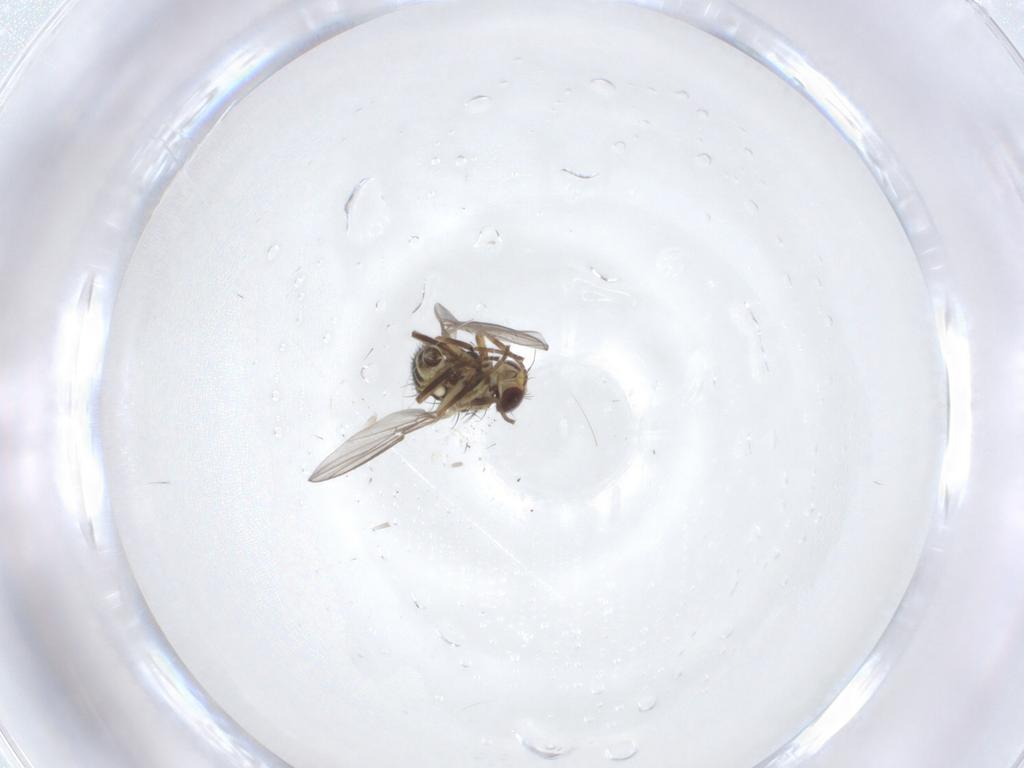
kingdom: Animalia
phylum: Arthropoda
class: Insecta
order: Diptera
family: Agromyzidae
